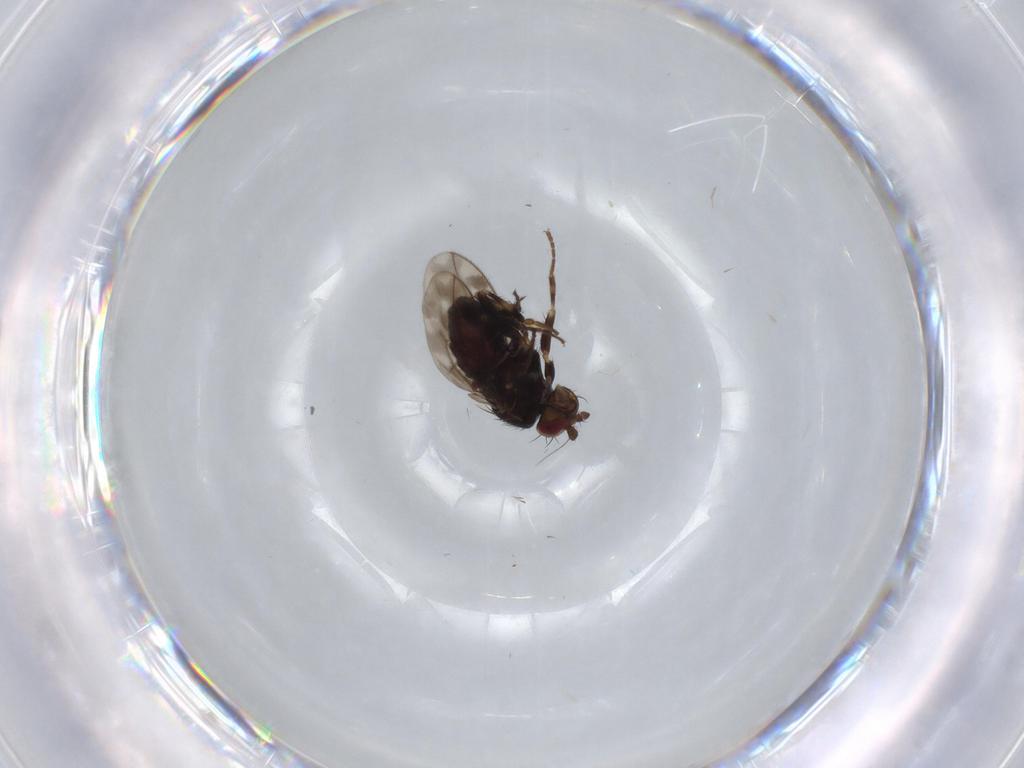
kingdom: Animalia
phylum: Arthropoda
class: Insecta
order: Diptera
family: Sphaeroceridae
